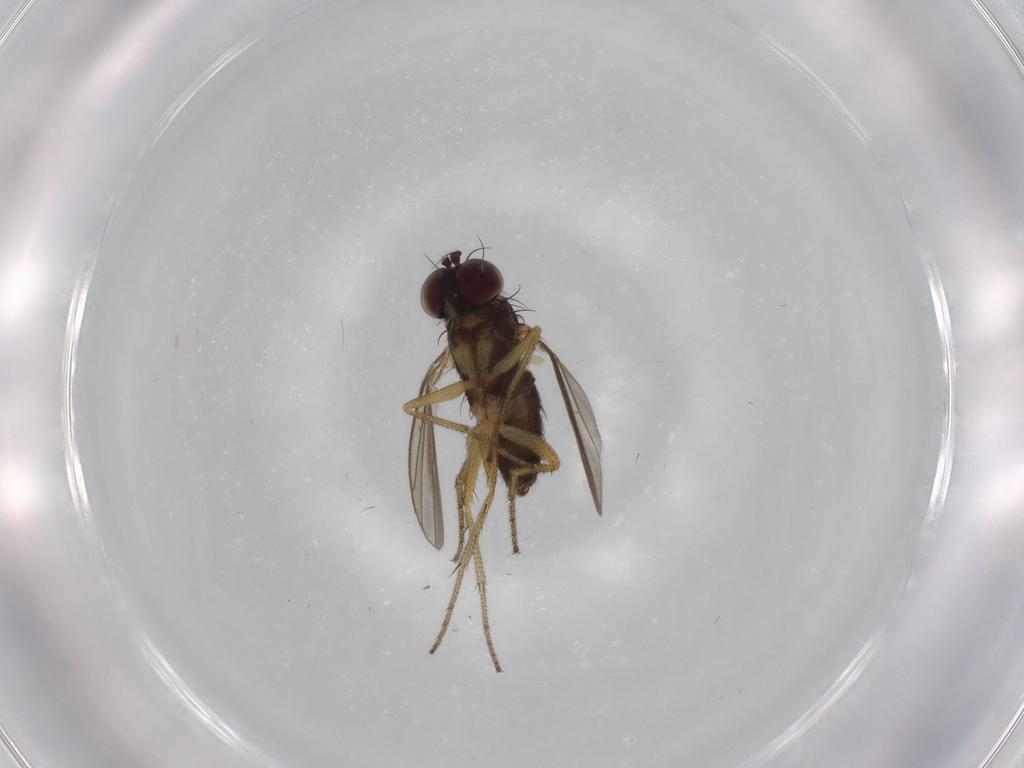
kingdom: Animalia
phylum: Arthropoda
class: Insecta
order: Diptera
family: Dolichopodidae
